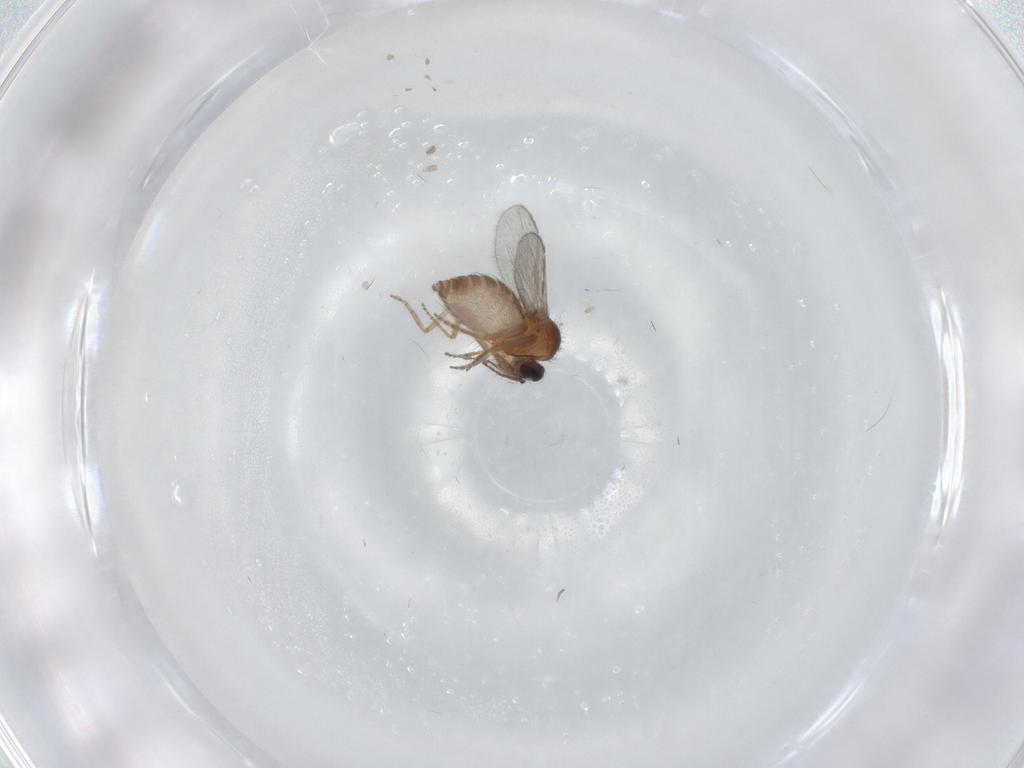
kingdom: Animalia
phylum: Arthropoda
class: Insecta
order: Diptera
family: Ceratopogonidae
